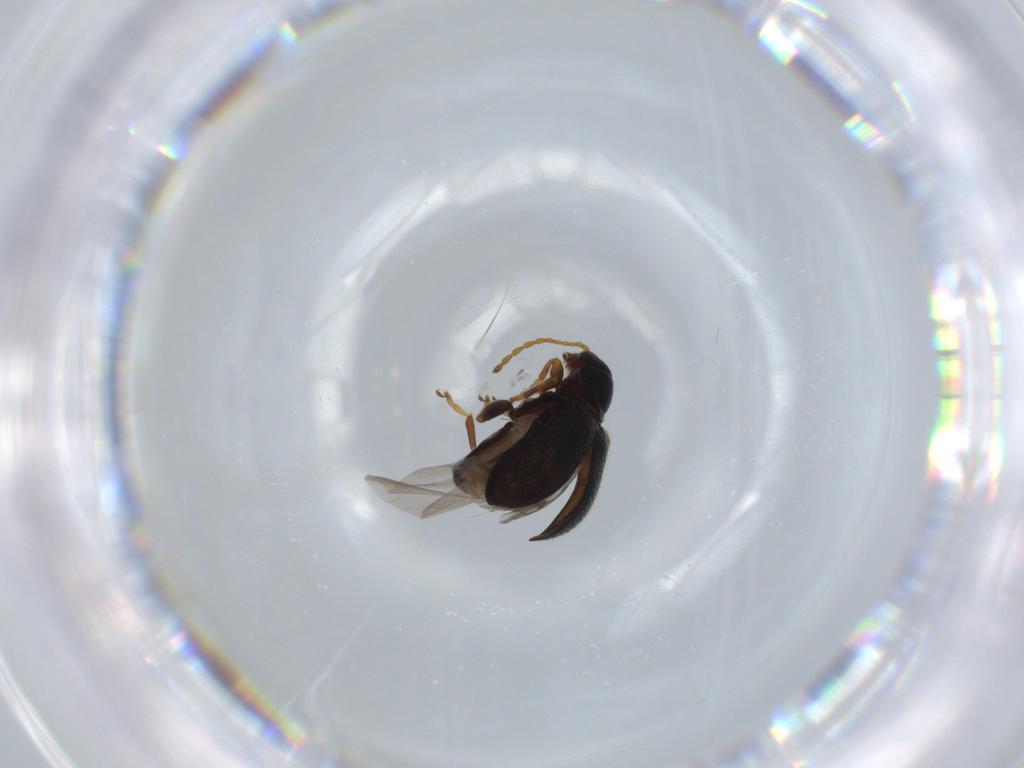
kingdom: Animalia
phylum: Arthropoda
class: Insecta
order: Coleoptera
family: Chrysomelidae
